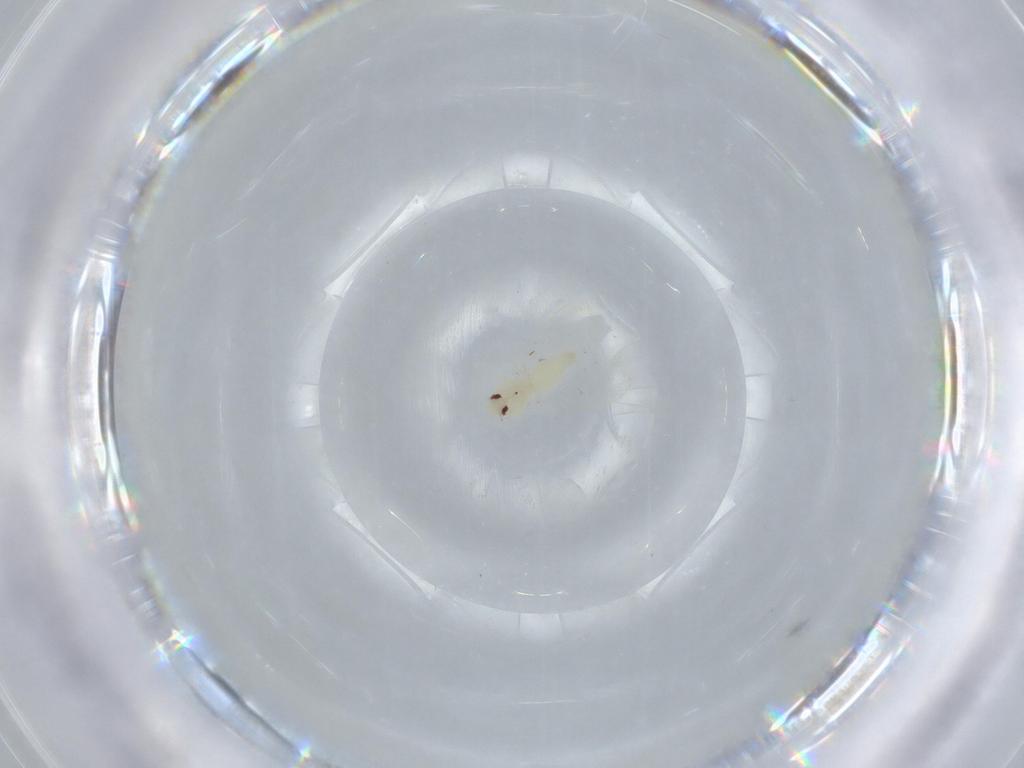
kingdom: Animalia
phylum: Arthropoda
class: Insecta
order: Hemiptera
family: Aleyrodidae
